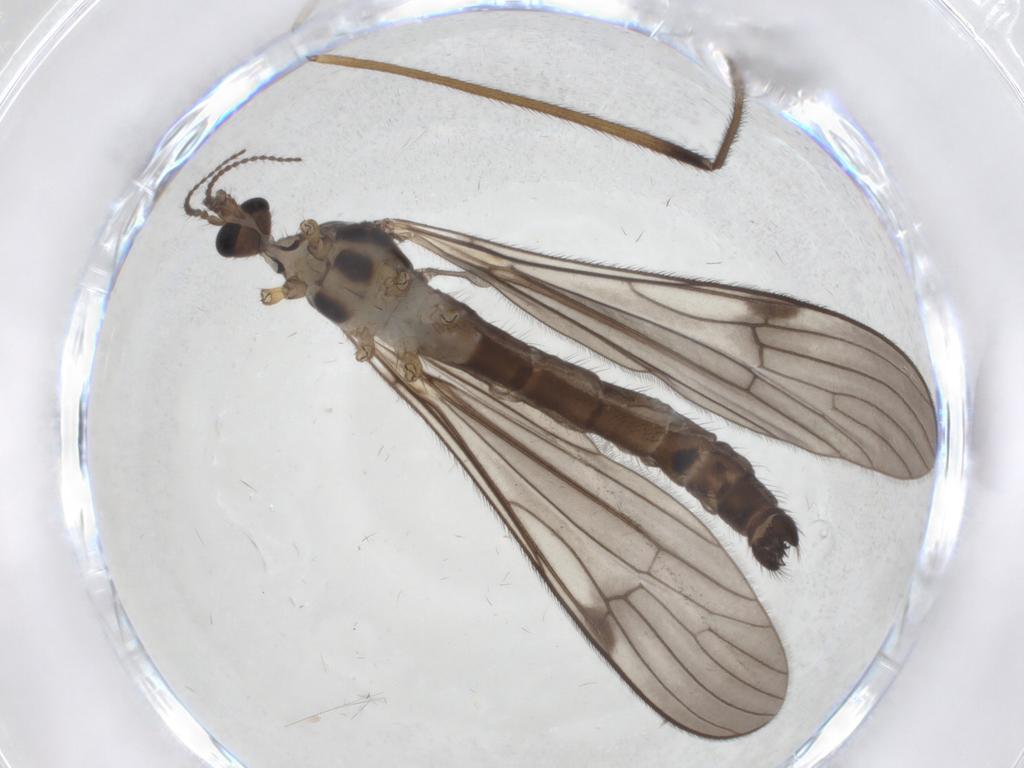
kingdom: Animalia
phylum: Arthropoda
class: Insecta
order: Diptera
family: Limoniidae
